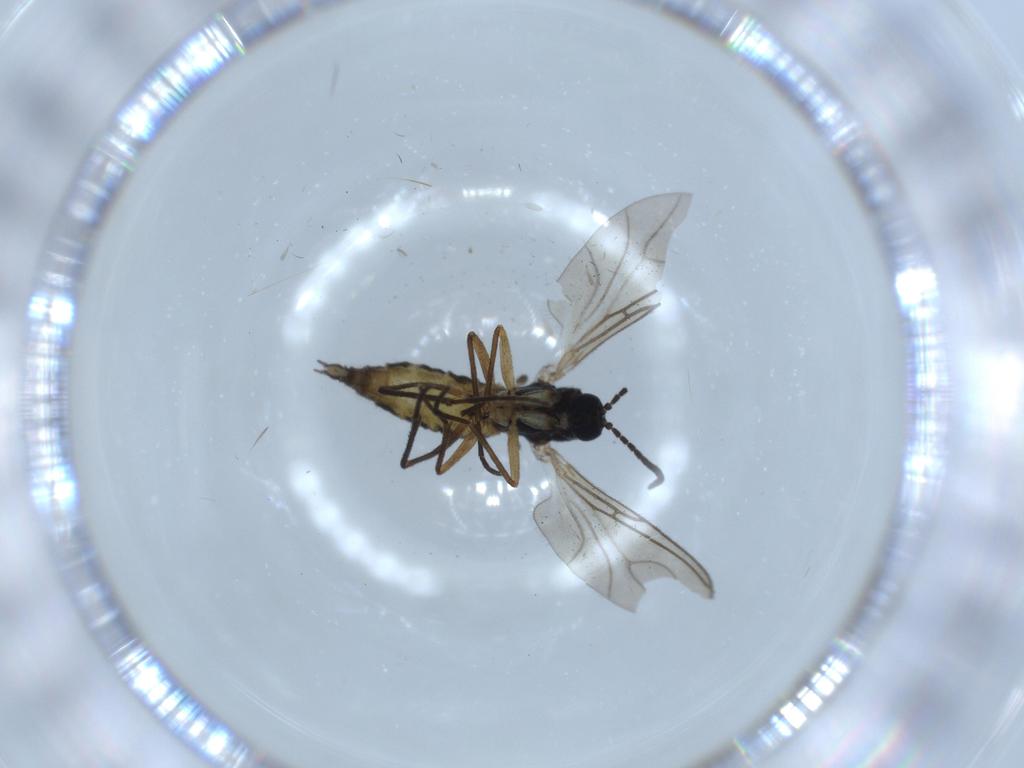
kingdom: Animalia
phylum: Arthropoda
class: Insecta
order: Diptera
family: Sciaridae
